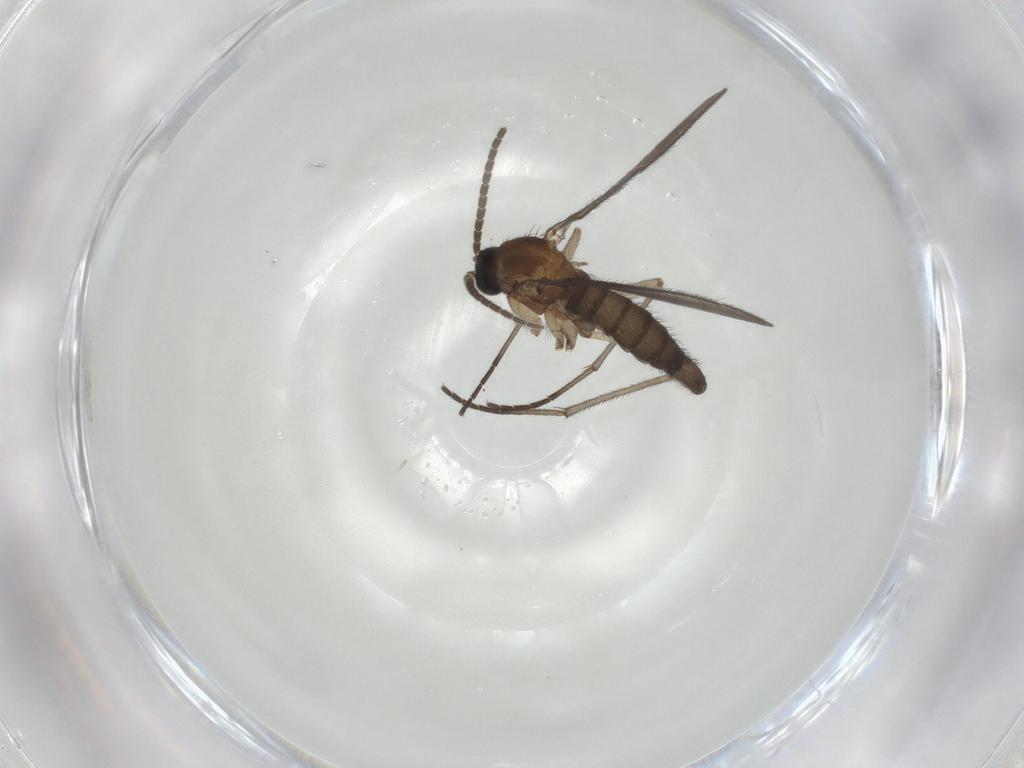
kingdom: Animalia
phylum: Arthropoda
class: Insecta
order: Diptera
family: Sciaridae
